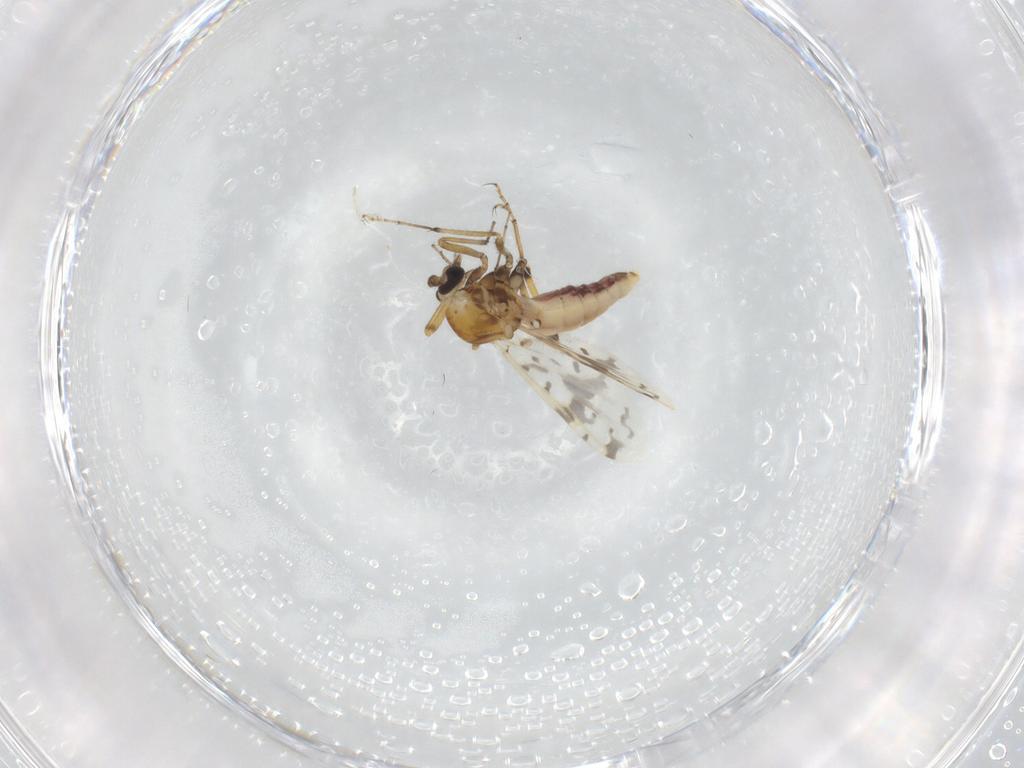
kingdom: Animalia
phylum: Arthropoda
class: Insecta
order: Diptera
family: Ceratopogonidae
